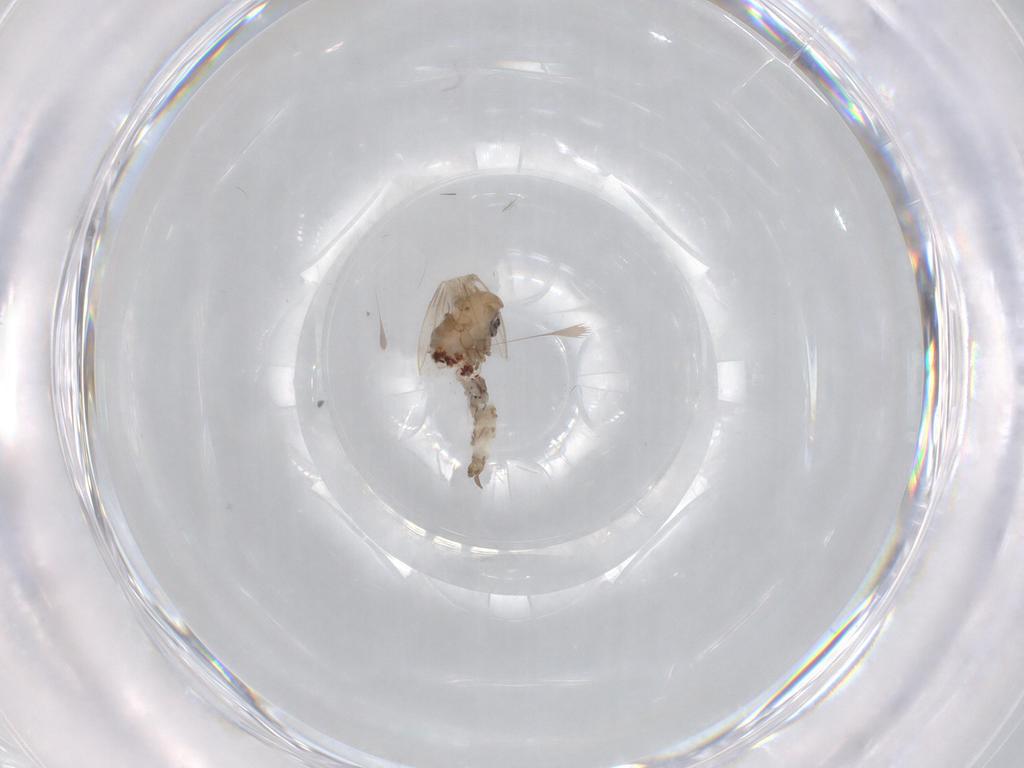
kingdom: Animalia
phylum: Arthropoda
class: Insecta
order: Diptera
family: Psychodidae
